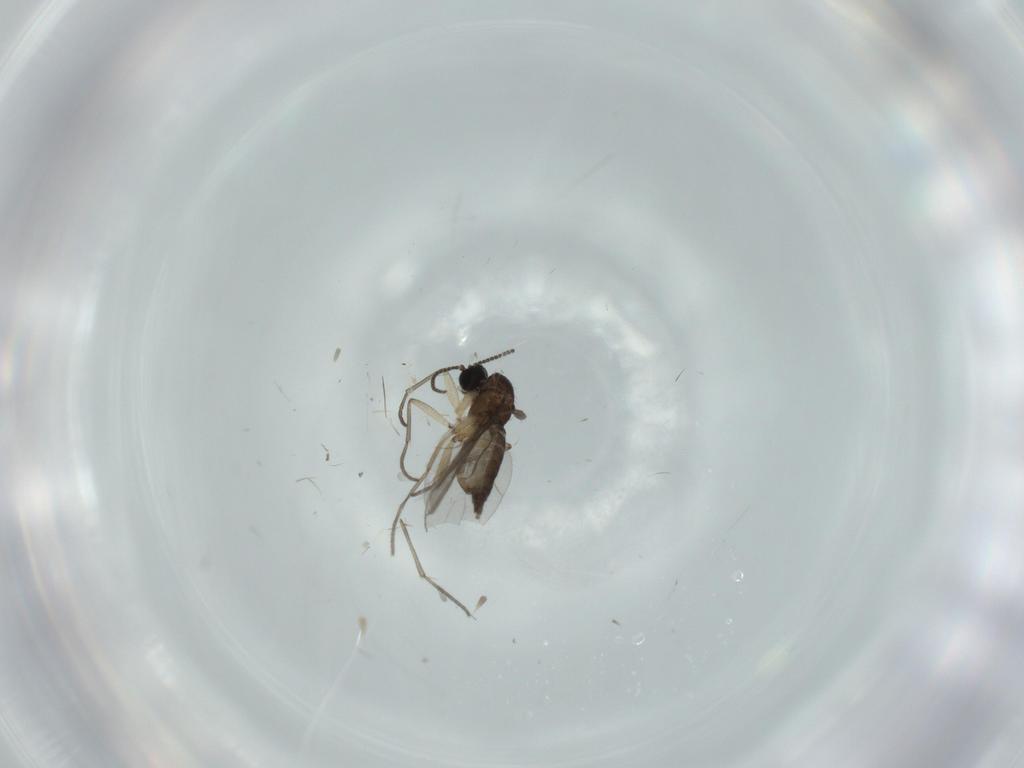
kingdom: Animalia
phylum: Arthropoda
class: Insecta
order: Diptera
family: Sciaridae
